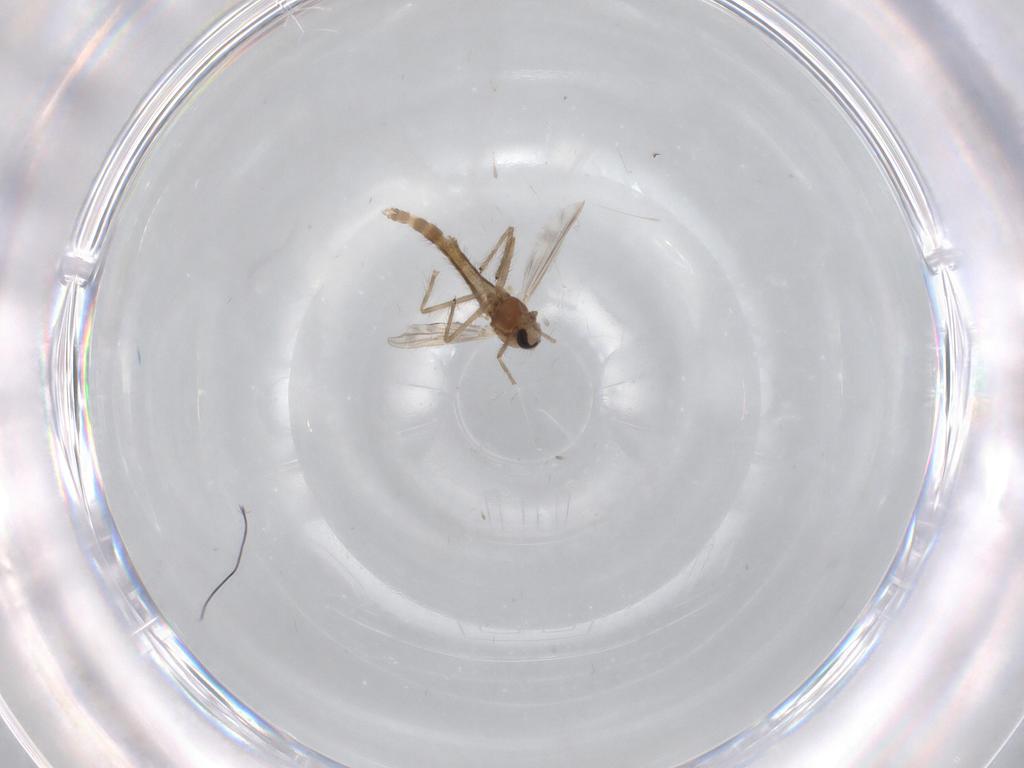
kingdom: Animalia
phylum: Arthropoda
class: Insecta
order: Diptera
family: Chironomidae
